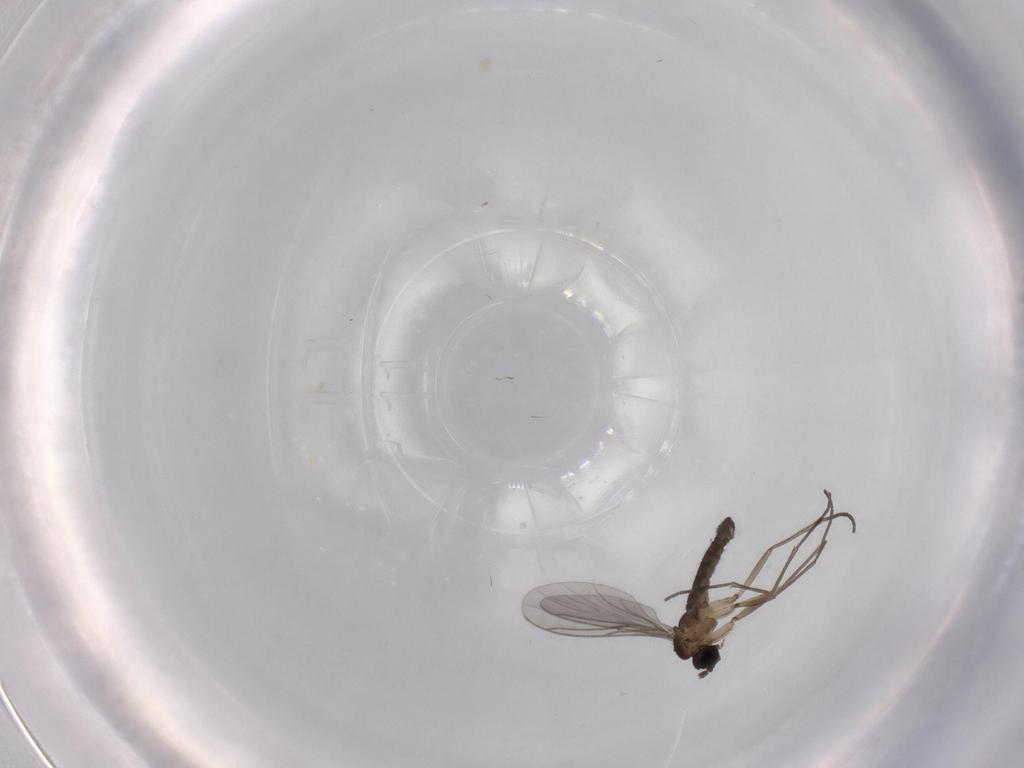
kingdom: Animalia
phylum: Arthropoda
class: Insecta
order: Diptera
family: Sciaridae
